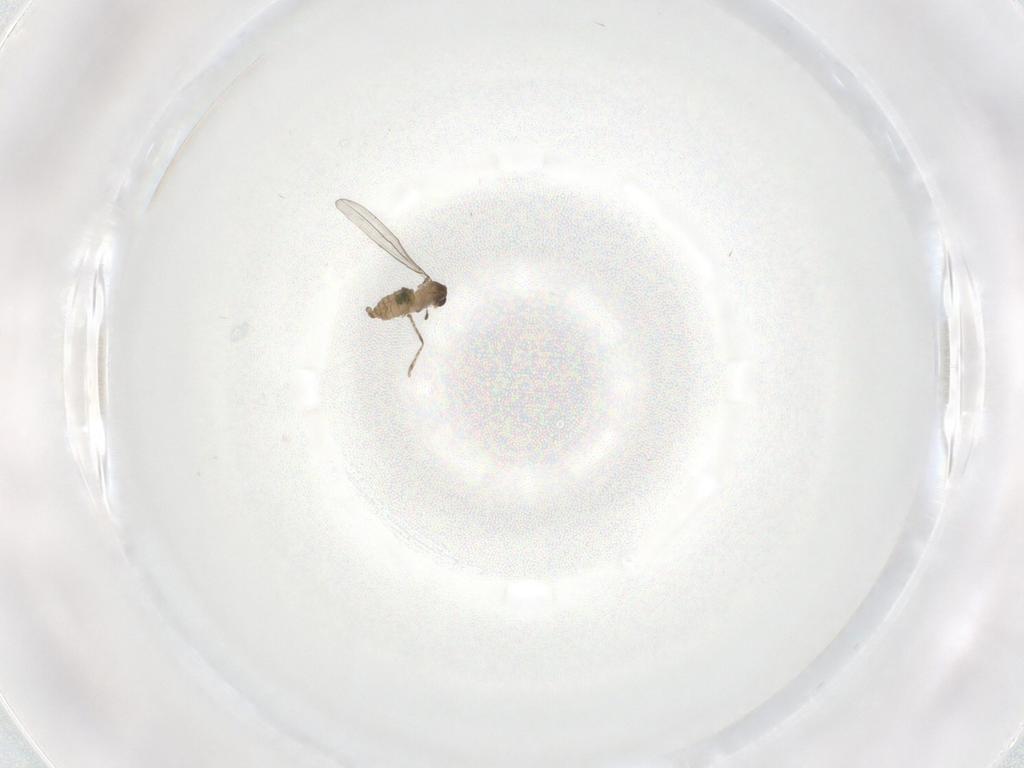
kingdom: Animalia
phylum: Arthropoda
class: Insecta
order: Diptera
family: Cecidomyiidae
